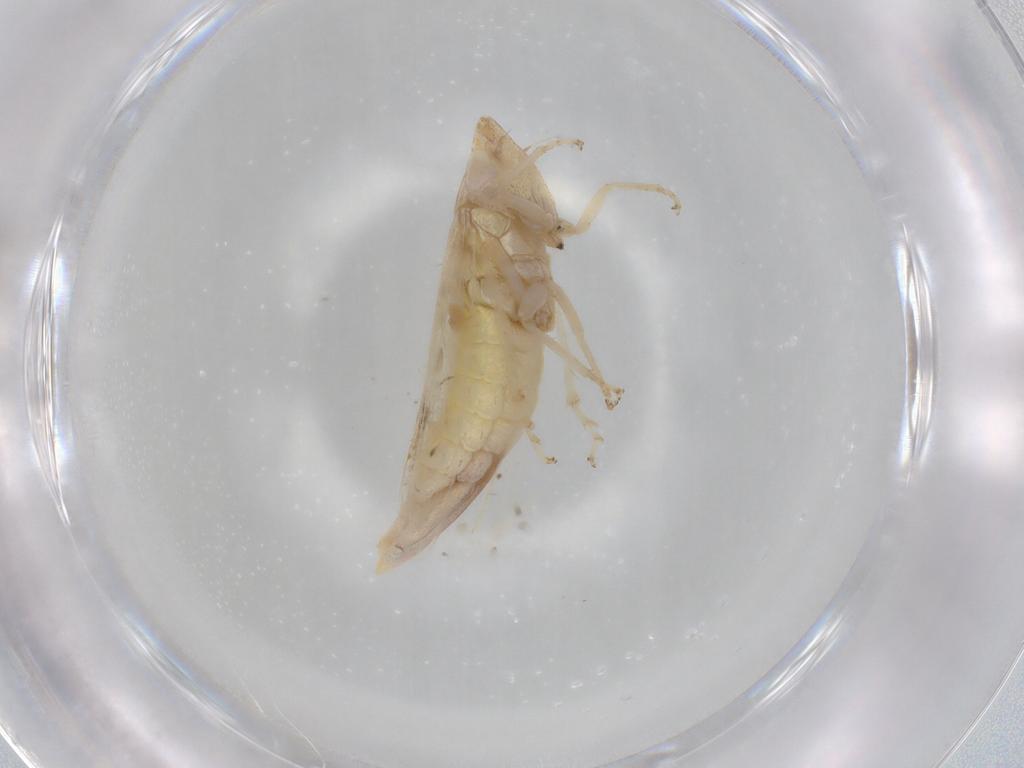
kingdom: Animalia
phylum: Arthropoda
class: Insecta
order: Hemiptera
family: Cicadellidae
